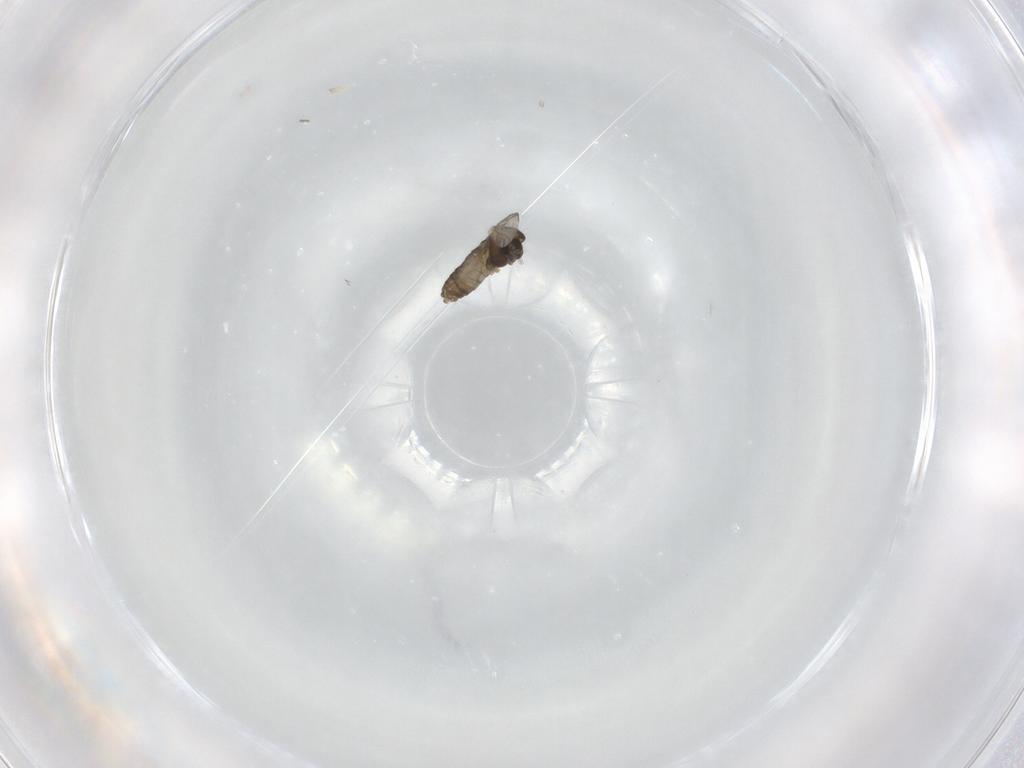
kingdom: Animalia
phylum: Arthropoda
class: Insecta
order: Diptera
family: Chironomidae
